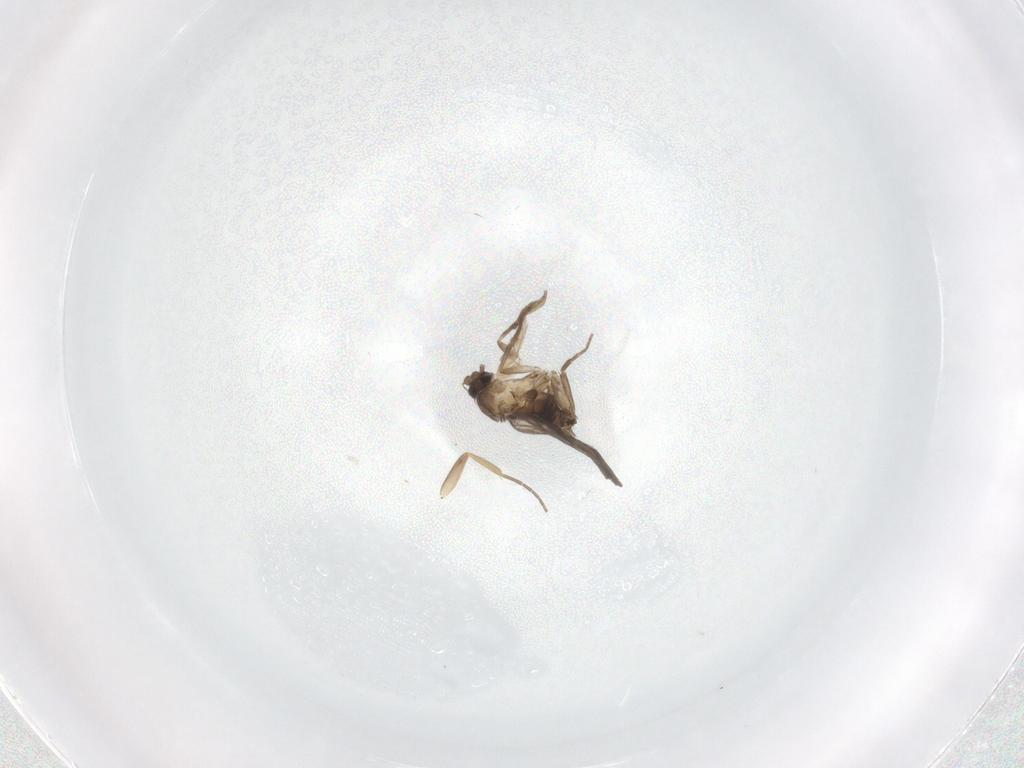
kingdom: Animalia
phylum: Arthropoda
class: Insecta
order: Diptera
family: Phoridae
